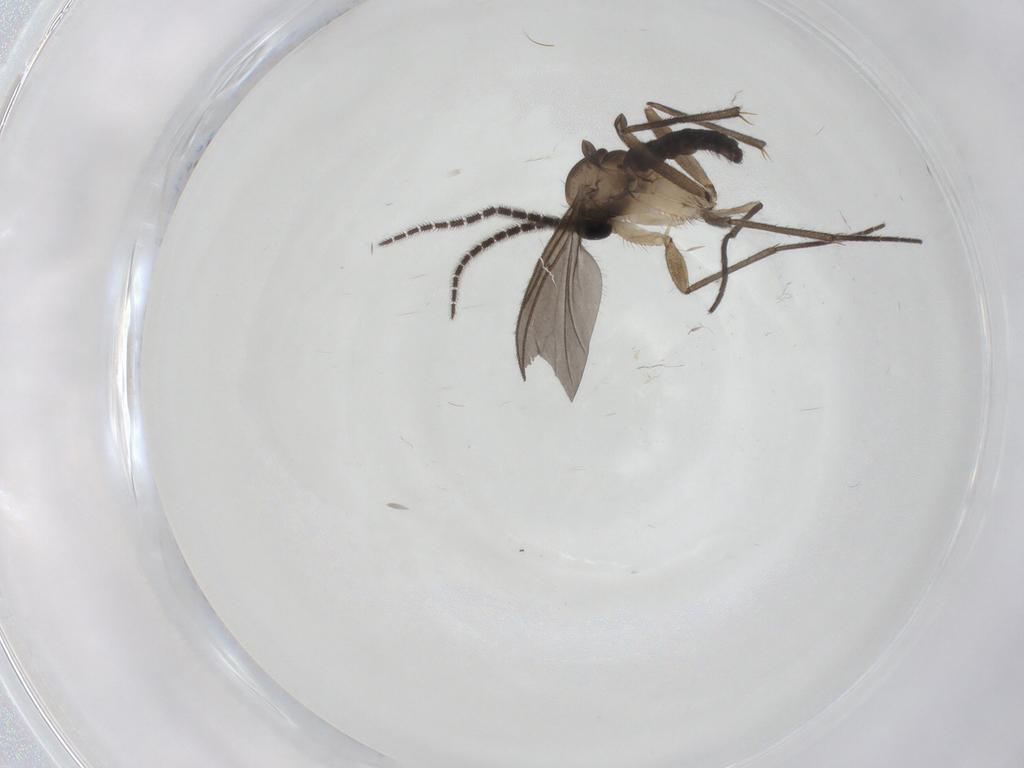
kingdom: Animalia
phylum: Arthropoda
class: Insecta
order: Diptera
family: Sciaridae
